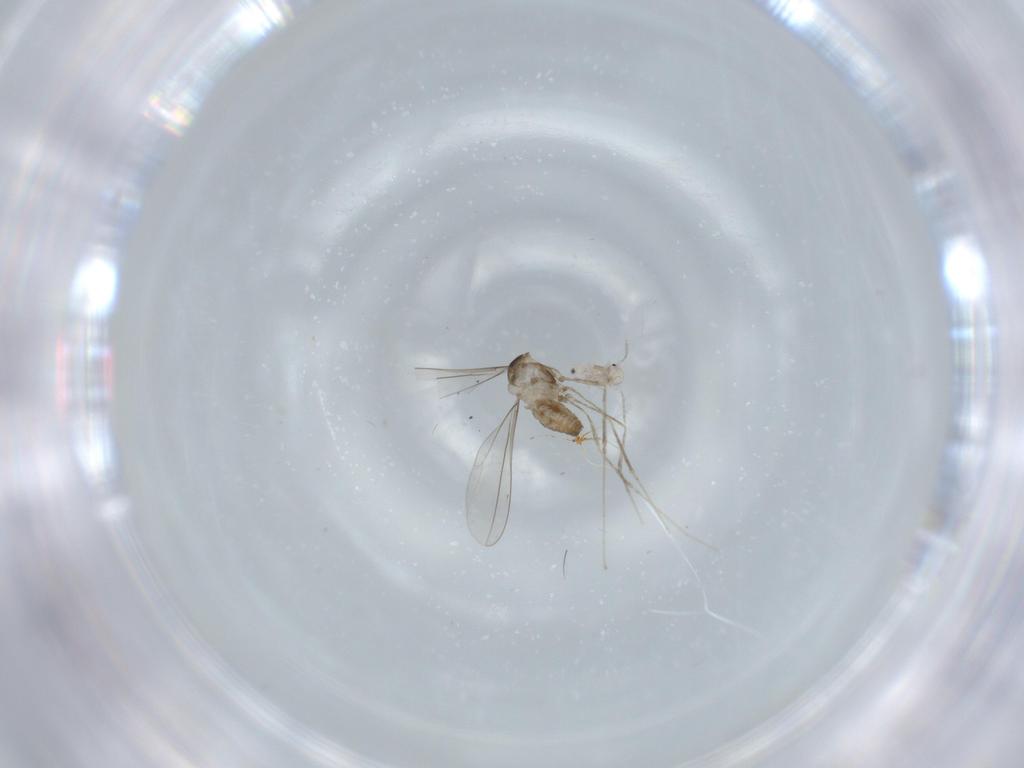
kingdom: Animalia
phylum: Arthropoda
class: Insecta
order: Diptera
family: Cecidomyiidae
